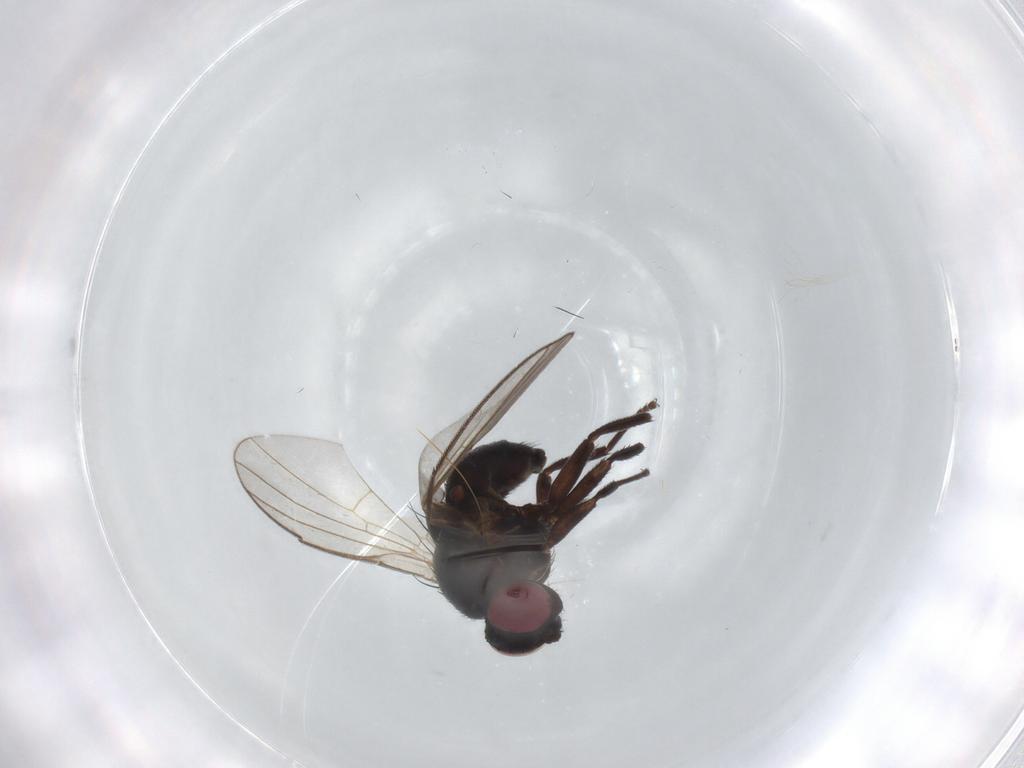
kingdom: Animalia
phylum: Arthropoda
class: Insecta
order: Diptera
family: Agromyzidae
